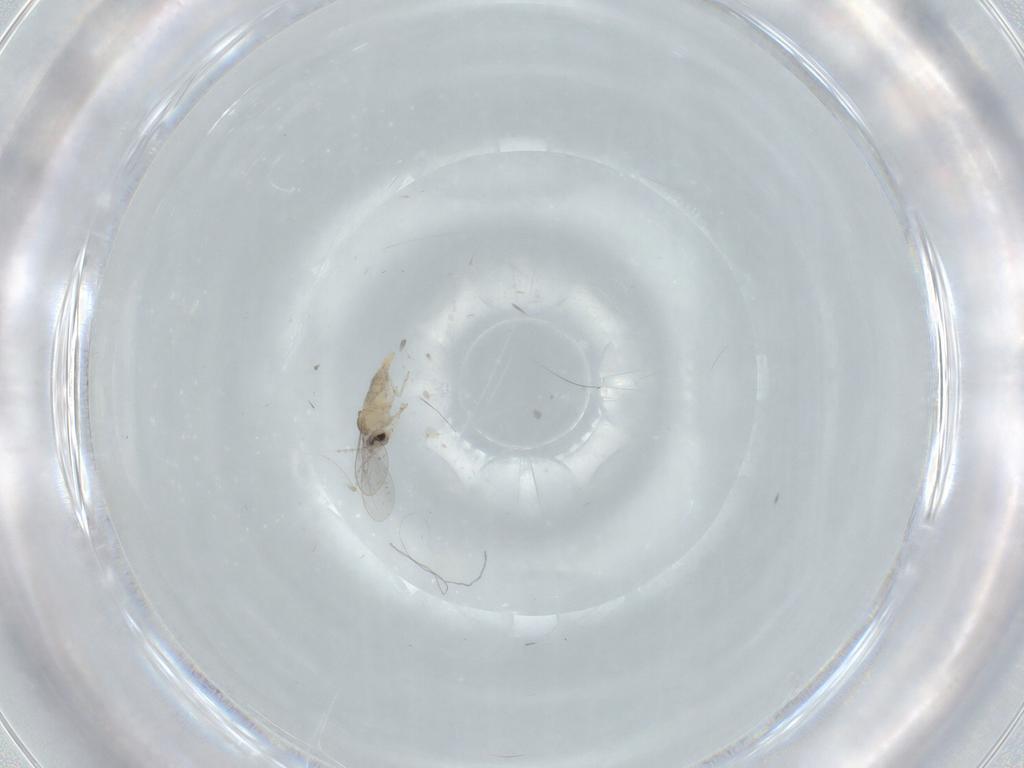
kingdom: Animalia
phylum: Arthropoda
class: Insecta
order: Diptera
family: Cecidomyiidae
